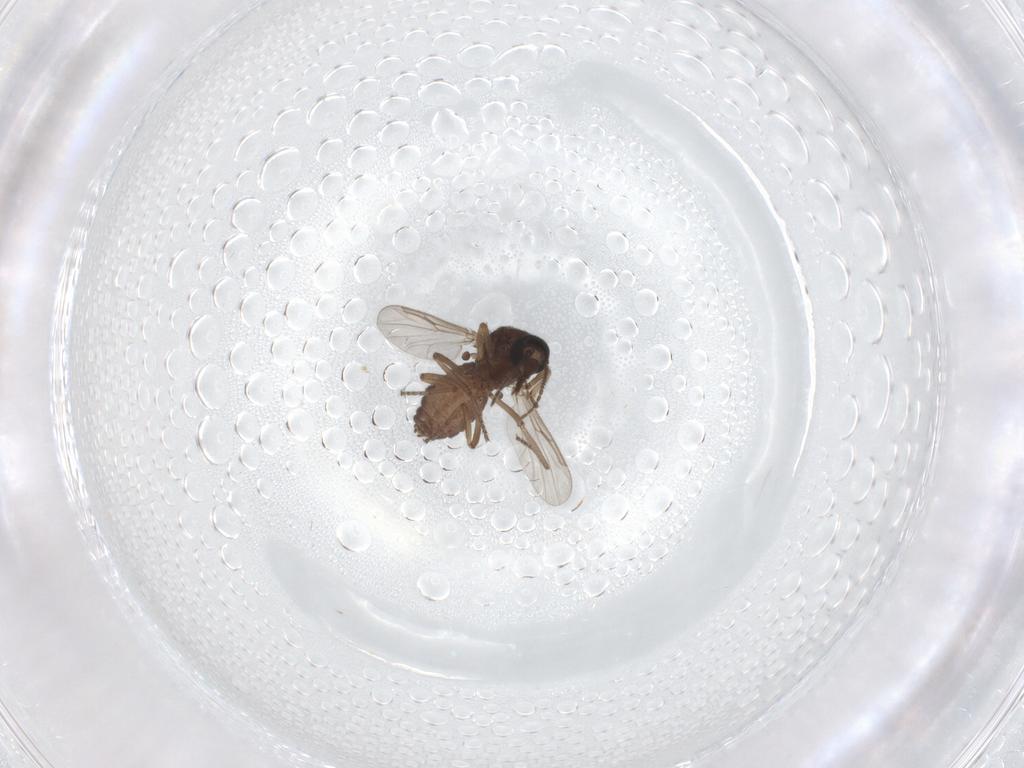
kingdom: Animalia
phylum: Arthropoda
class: Insecta
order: Diptera
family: Ceratopogonidae
